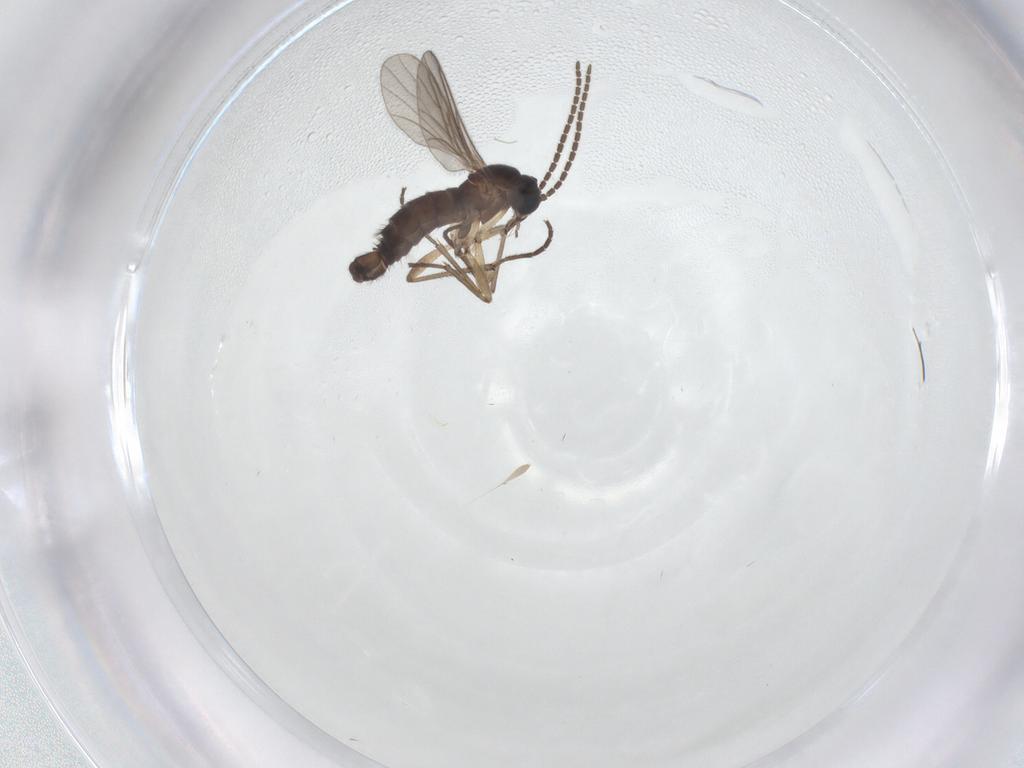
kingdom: Animalia
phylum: Arthropoda
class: Insecta
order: Diptera
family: Sciaridae
